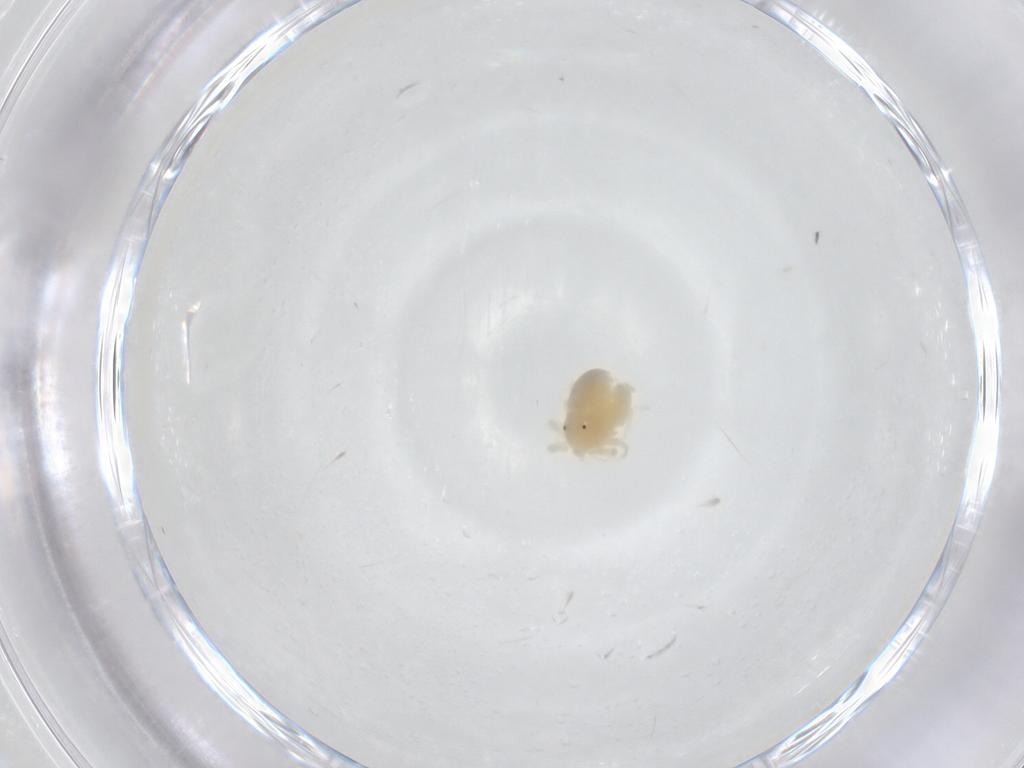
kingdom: Animalia
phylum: Arthropoda
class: Arachnida
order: Trombidiformes
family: Anystidae
